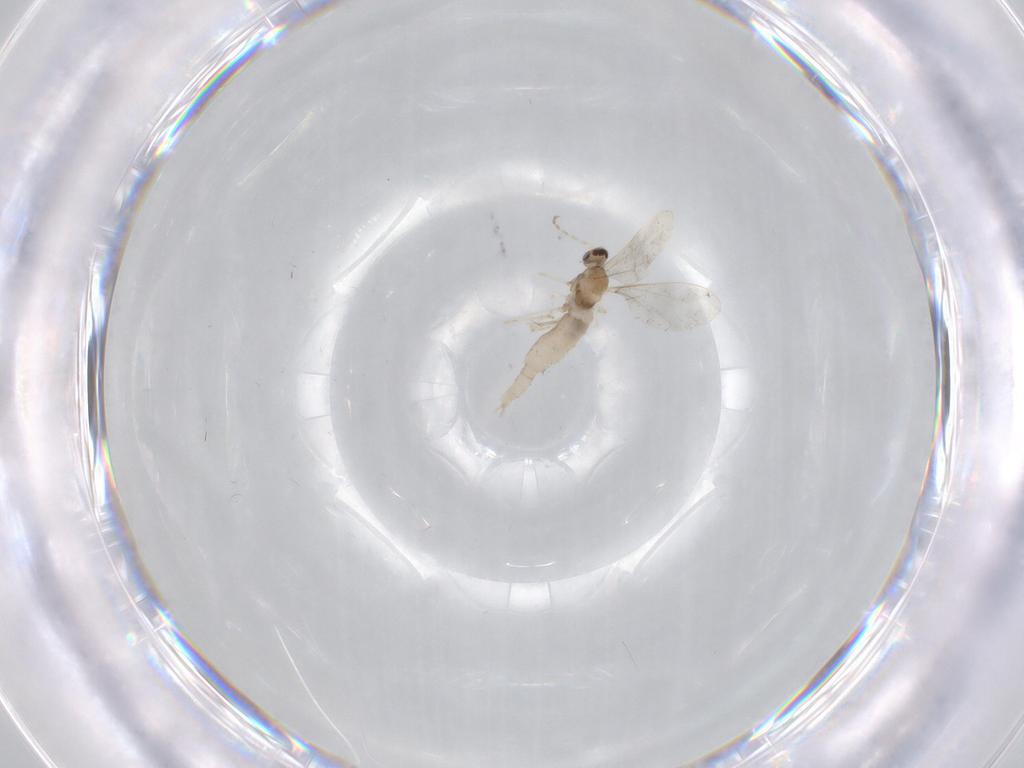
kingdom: Animalia
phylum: Arthropoda
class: Insecta
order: Diptera
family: Cecidomyiidae
